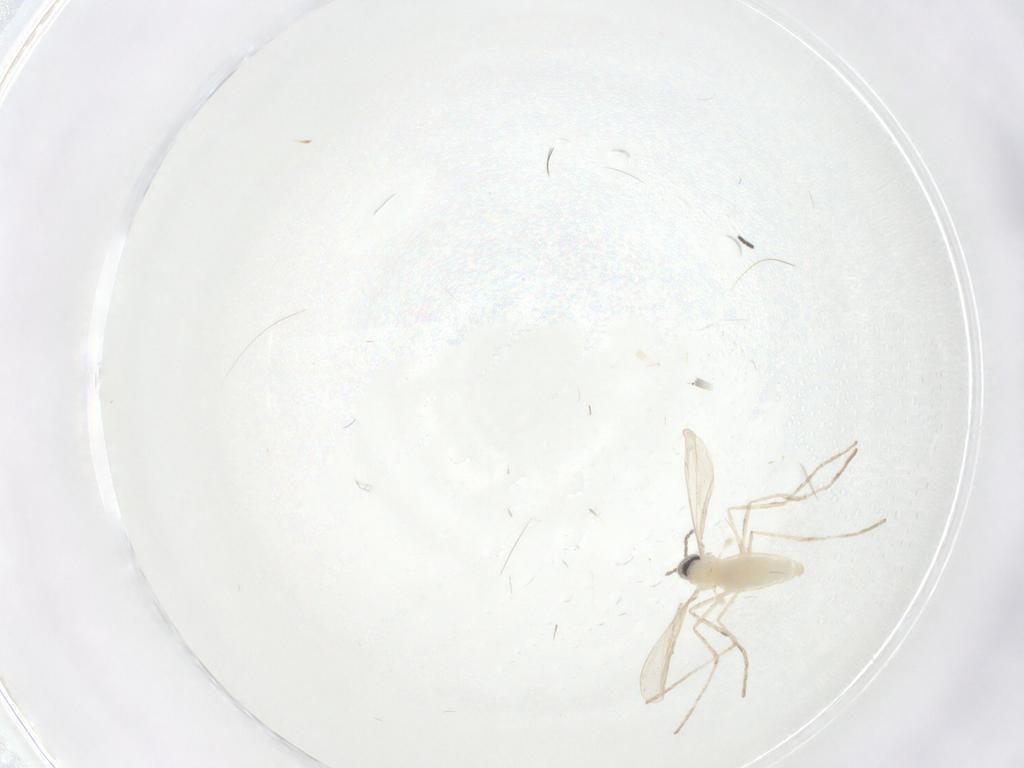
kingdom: Animalia
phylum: Arthropoda
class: Insecta
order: Diptera
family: Cecidomyiidae
